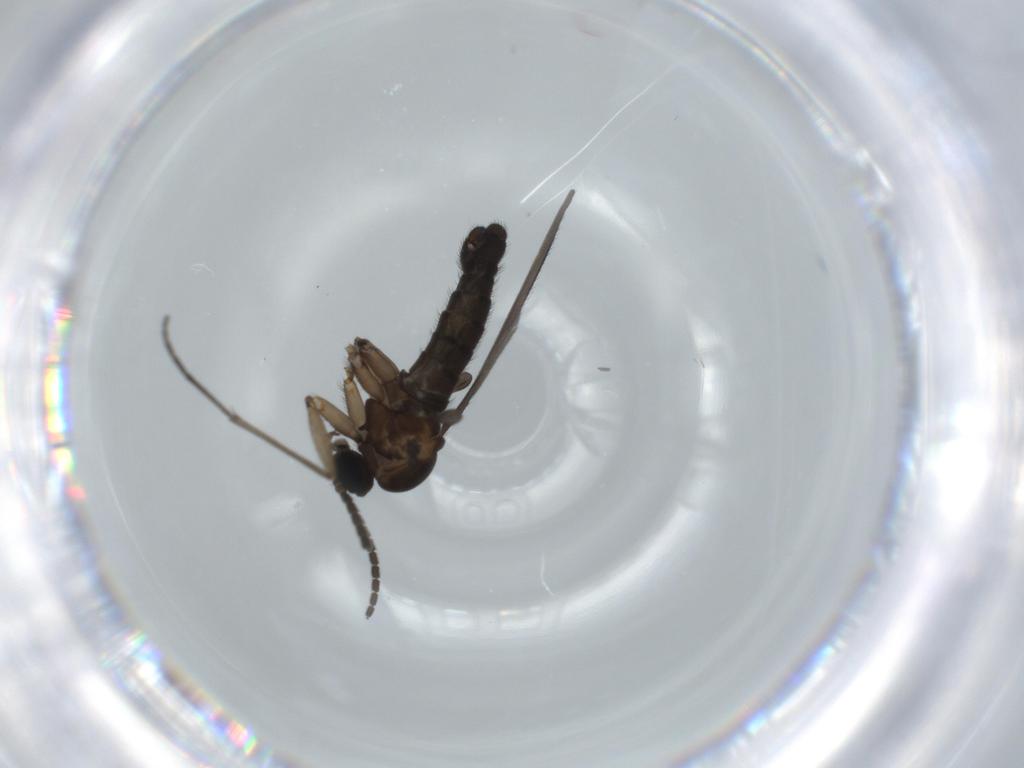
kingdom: Animalia
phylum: Arthropoda
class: Insecta
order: Diptera
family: Sciaridae
